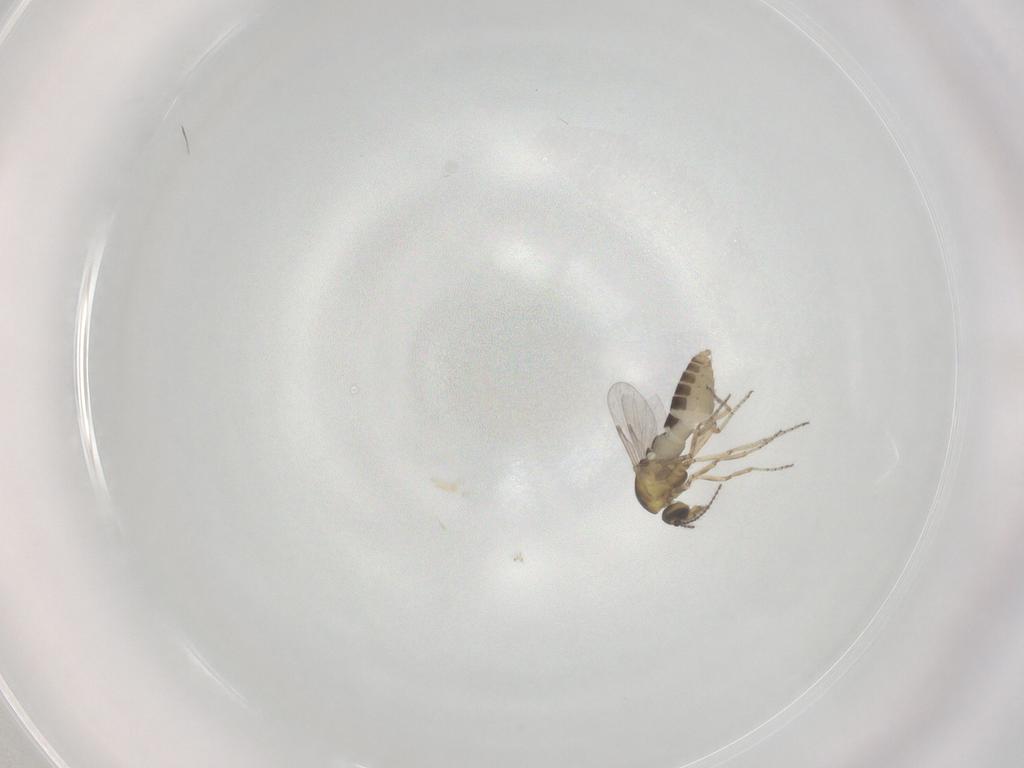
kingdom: Animalia
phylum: Arthropoda
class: Insecta
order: Diptera
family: Ceratopogonidae
